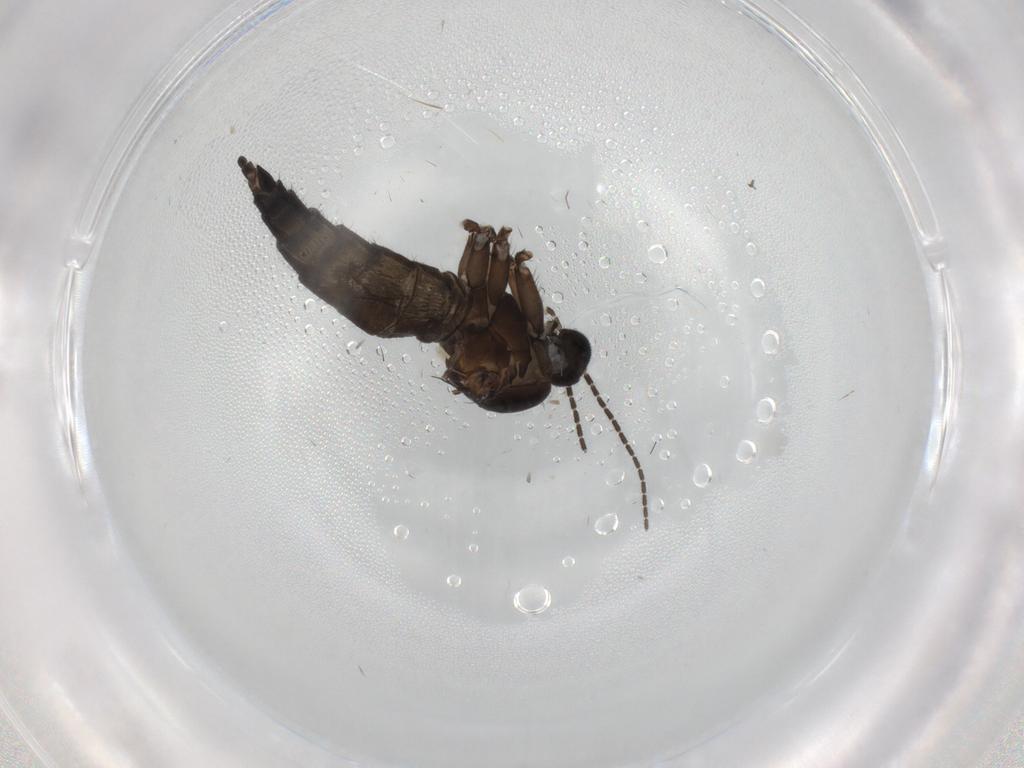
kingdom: Animalia
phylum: Arthropoda
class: Insecta
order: Diptera
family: Sciaridae
